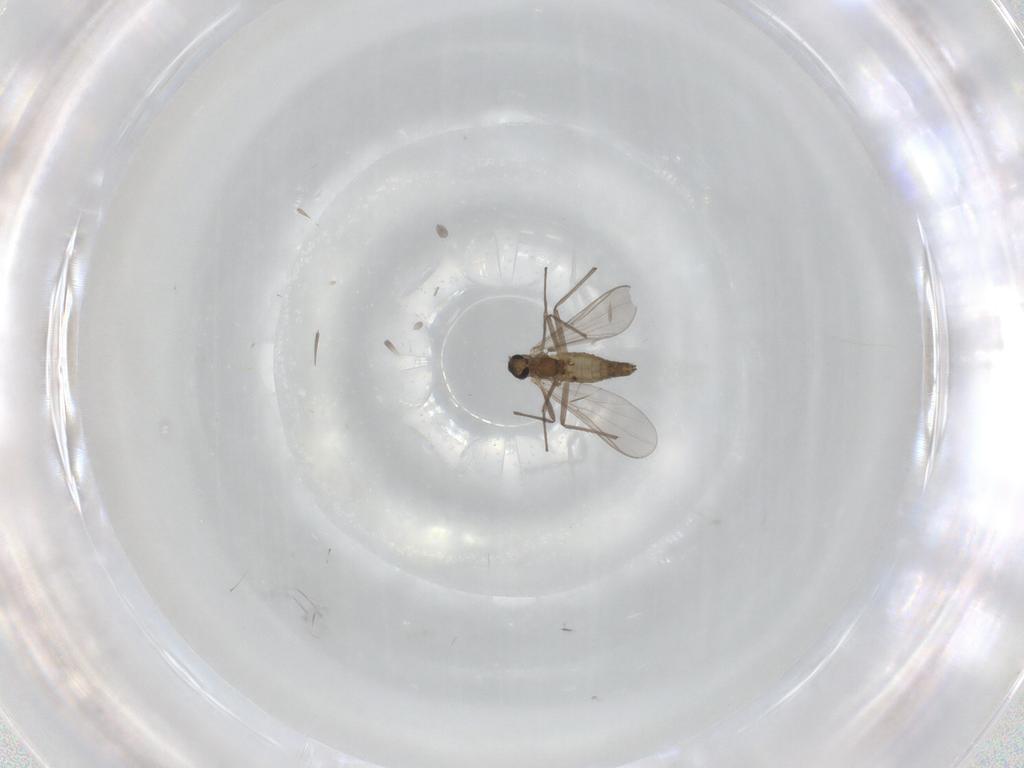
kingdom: Animalia
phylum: Arthropoda
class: Insecta
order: Diptera
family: Chironomidae
